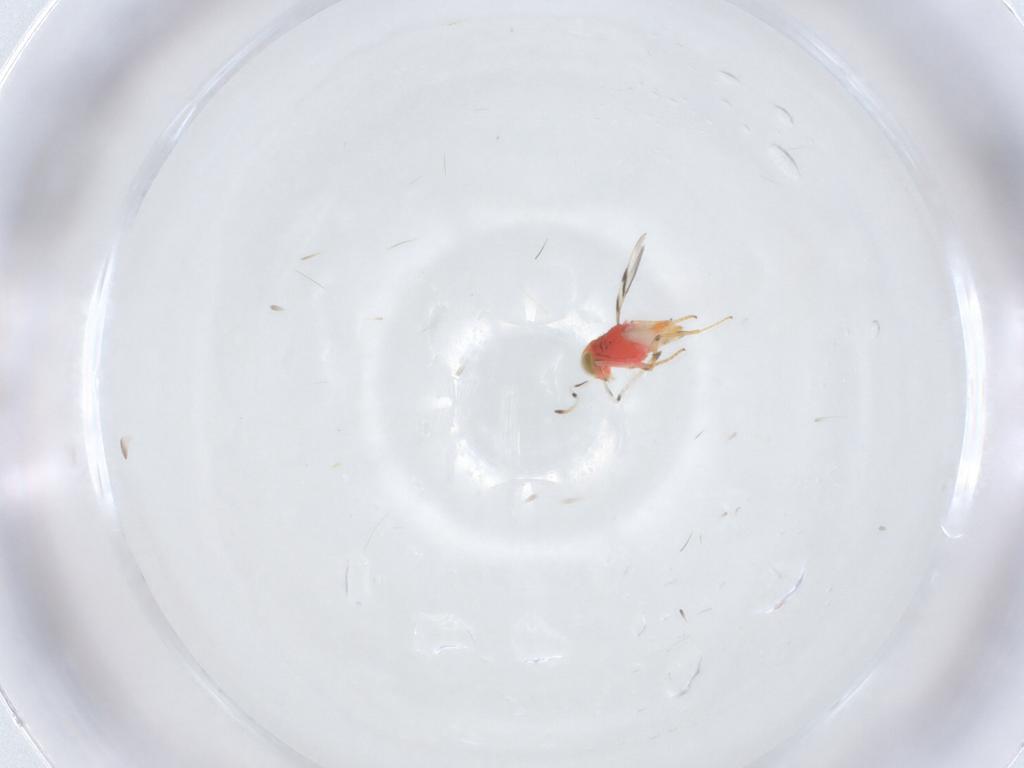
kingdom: Animalia
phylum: Arthropoda
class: Insecta
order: Hymenoptera
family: Encyrtidae
